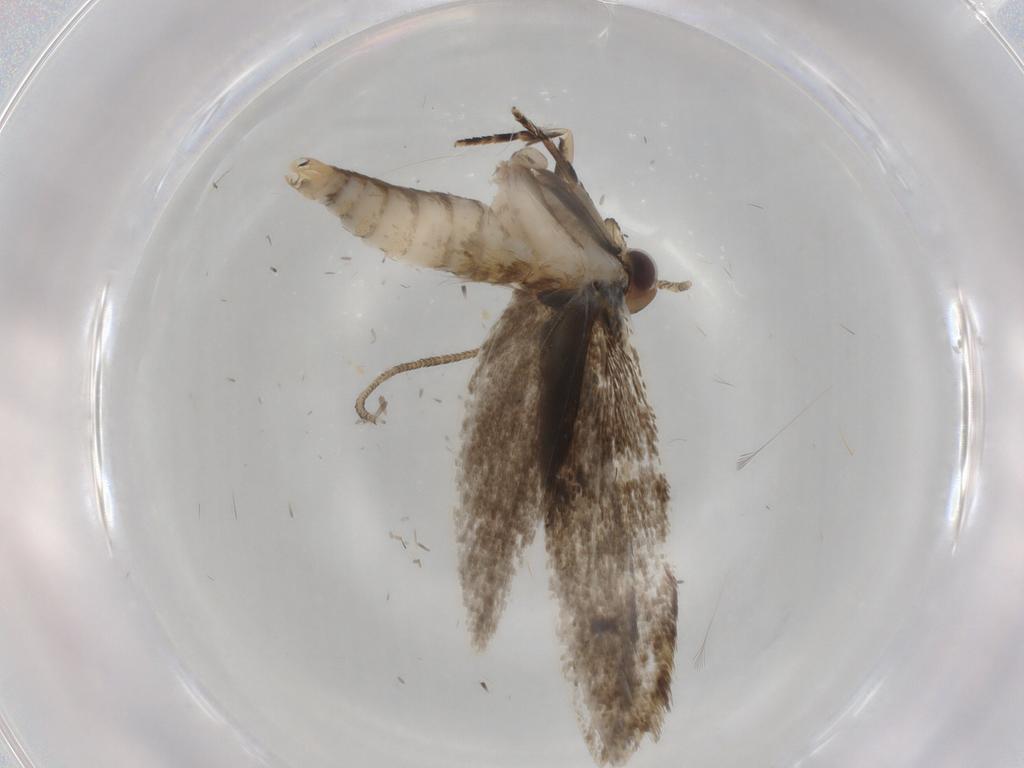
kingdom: Animalia
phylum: Arthropoda
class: Insecta
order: Lepidoptera
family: Gelechiidae
